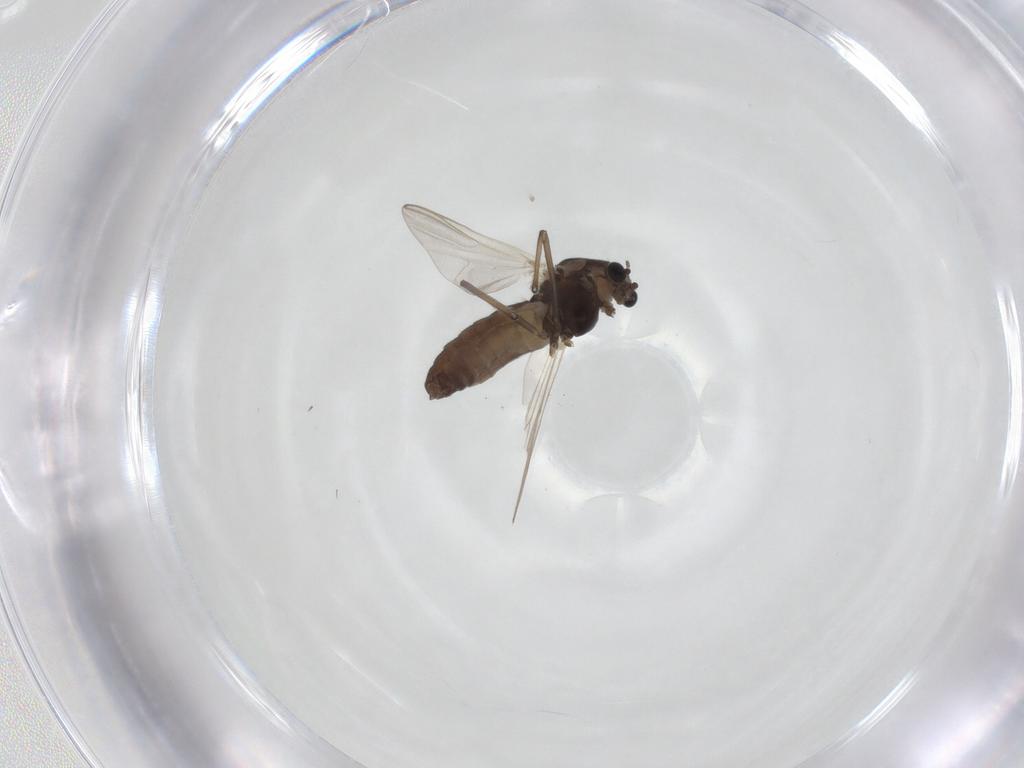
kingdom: Animalia
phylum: Arthropoda
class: Insecta
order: Diptera
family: Chironomidae
